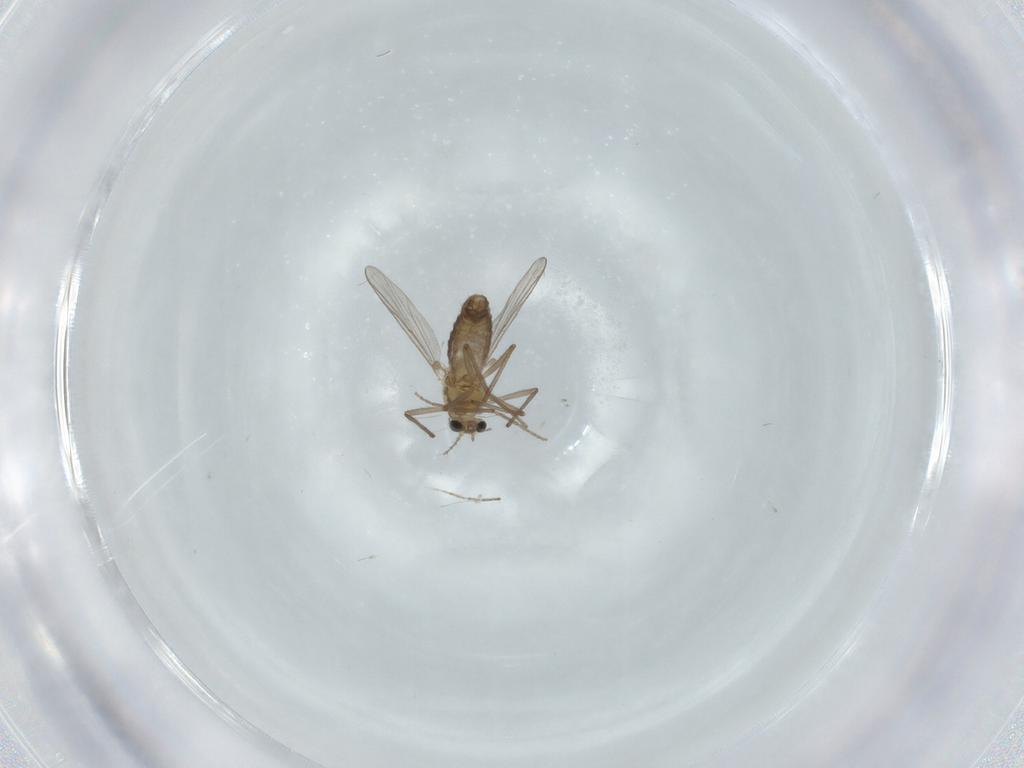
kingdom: Animalia
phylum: Arthropoda
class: Insecta
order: Diptera
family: Chironomidae
